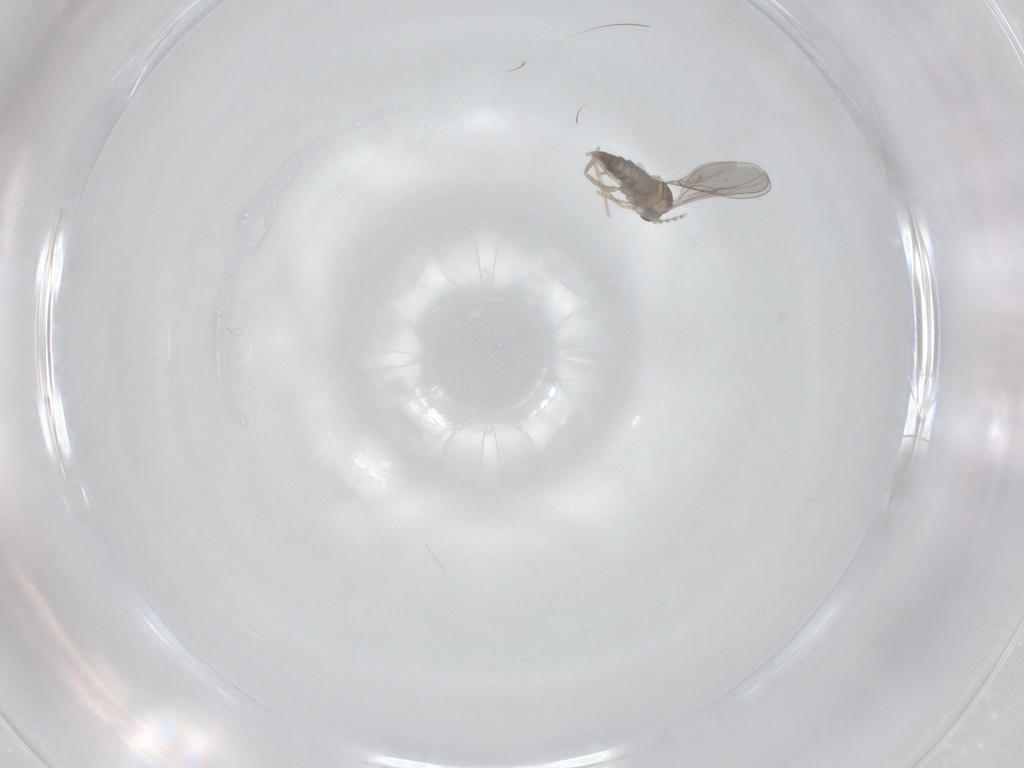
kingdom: Animalia
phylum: Arthropoda
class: Insecta
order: Diptera
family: Cecidomyiidae
